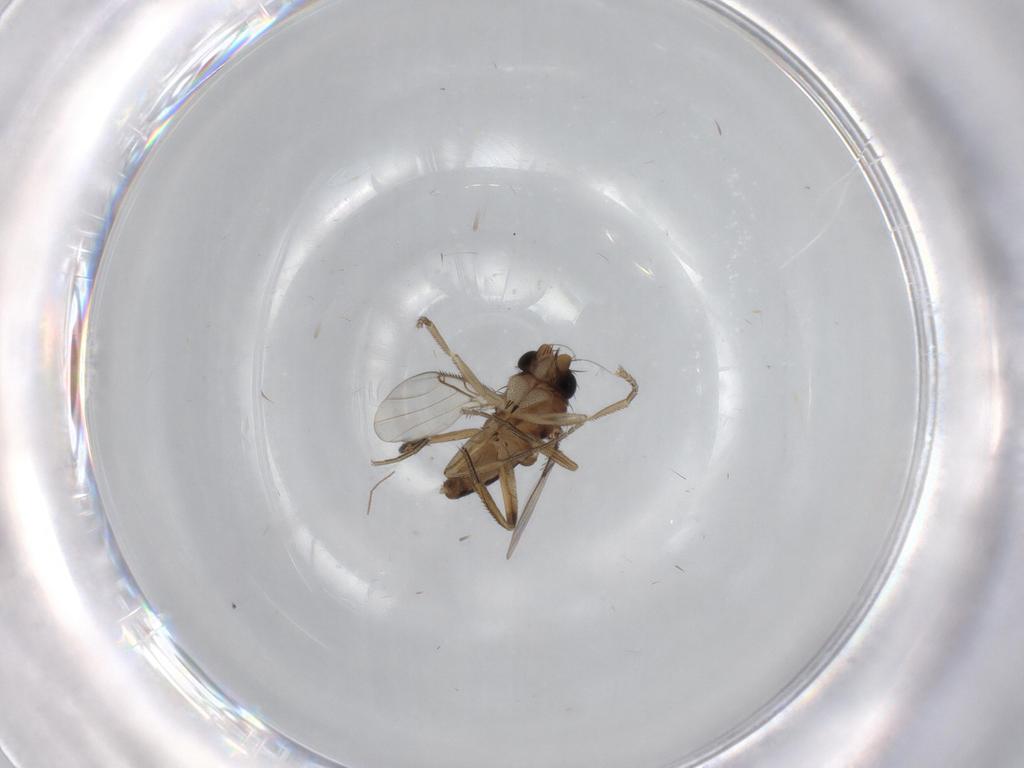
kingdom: Animalia
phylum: Arthropoda
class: Insecta
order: Diptera
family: Phoridae
